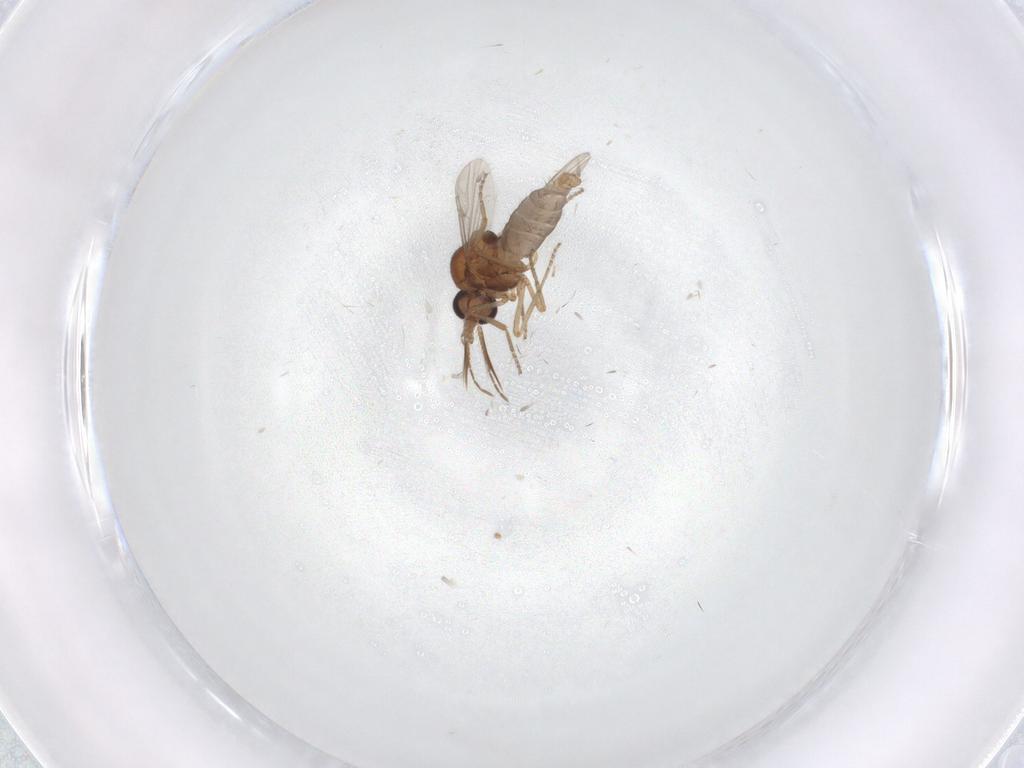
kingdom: Animalia
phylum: Arthropoda
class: Insecta
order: Diptera
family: Ceratopogonidae
